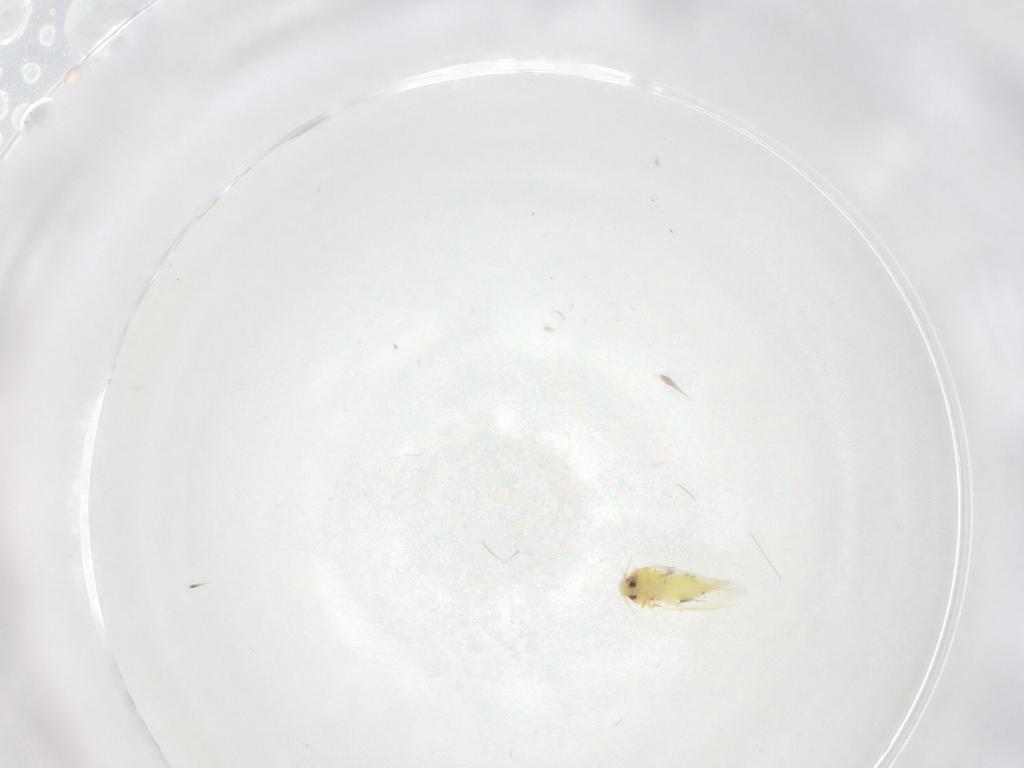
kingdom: Animalia
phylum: Arthropoda
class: Insecta
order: Hemiptera
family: Aleyrodidae
